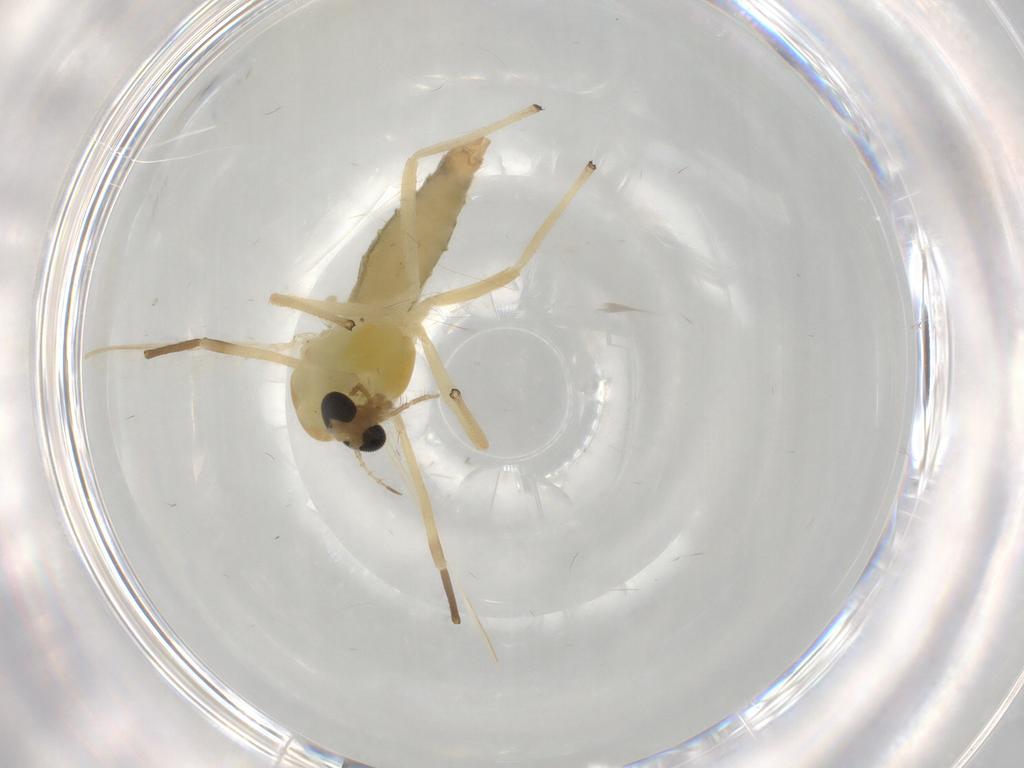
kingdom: Animalia
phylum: Arthropoda
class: Insecta
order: Diptera
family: Chironomidae
